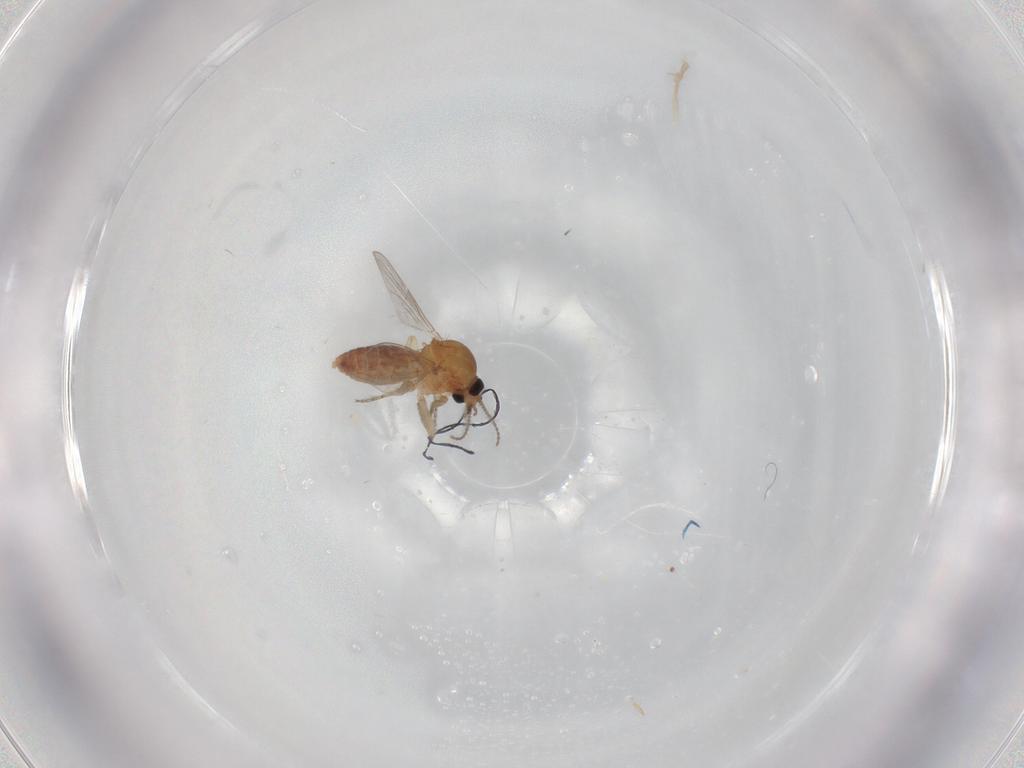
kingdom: Animalia
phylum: Arthropoda
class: Insecta
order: Diptera
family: Ceratopogonidae
